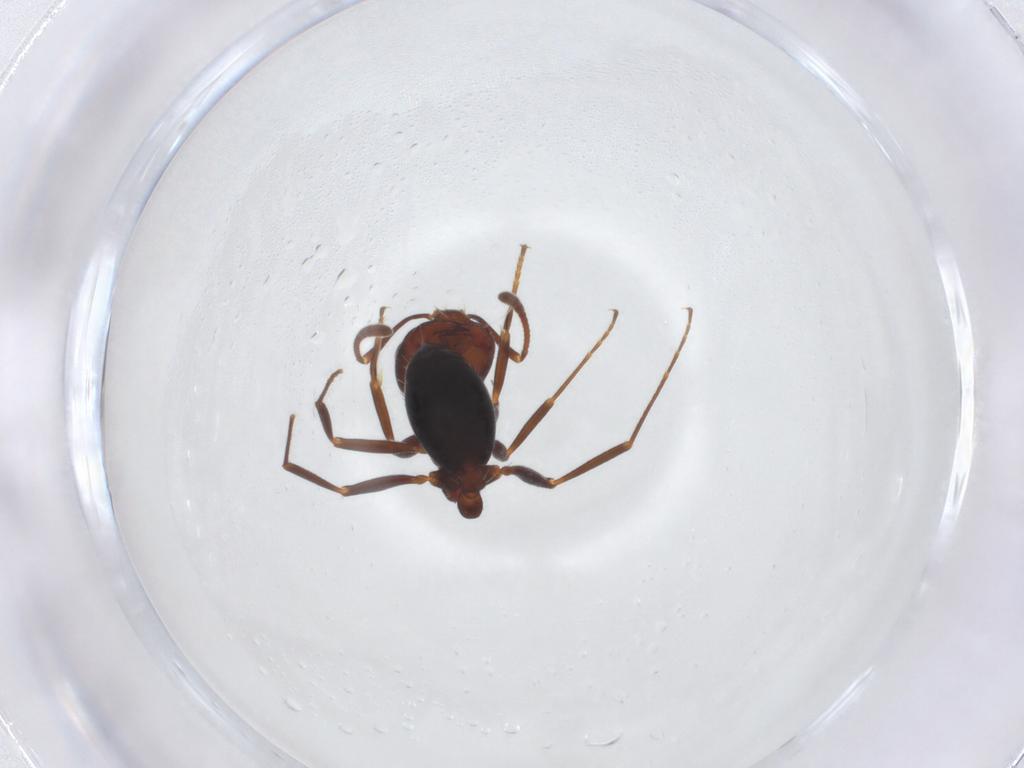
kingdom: Animalia
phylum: Arthropoda
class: Insecta
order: Hymenoptera
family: Formicidae
